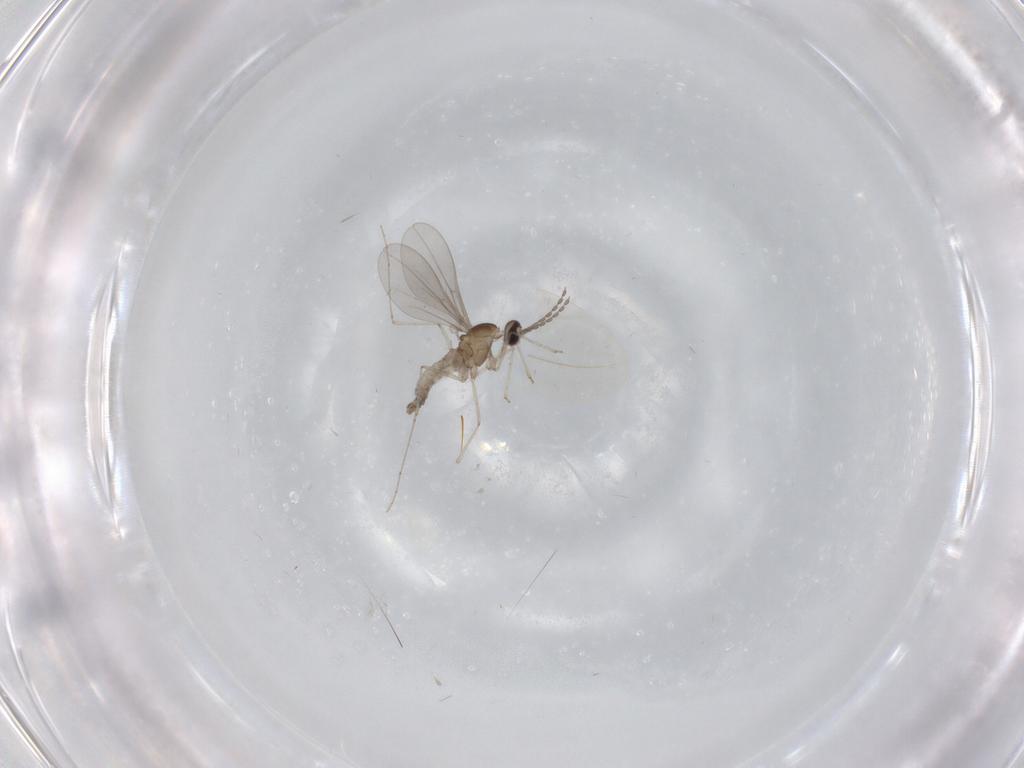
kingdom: Animalia
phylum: Arthropoda
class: Insecta
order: Diptera
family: Cecidomyiidae
